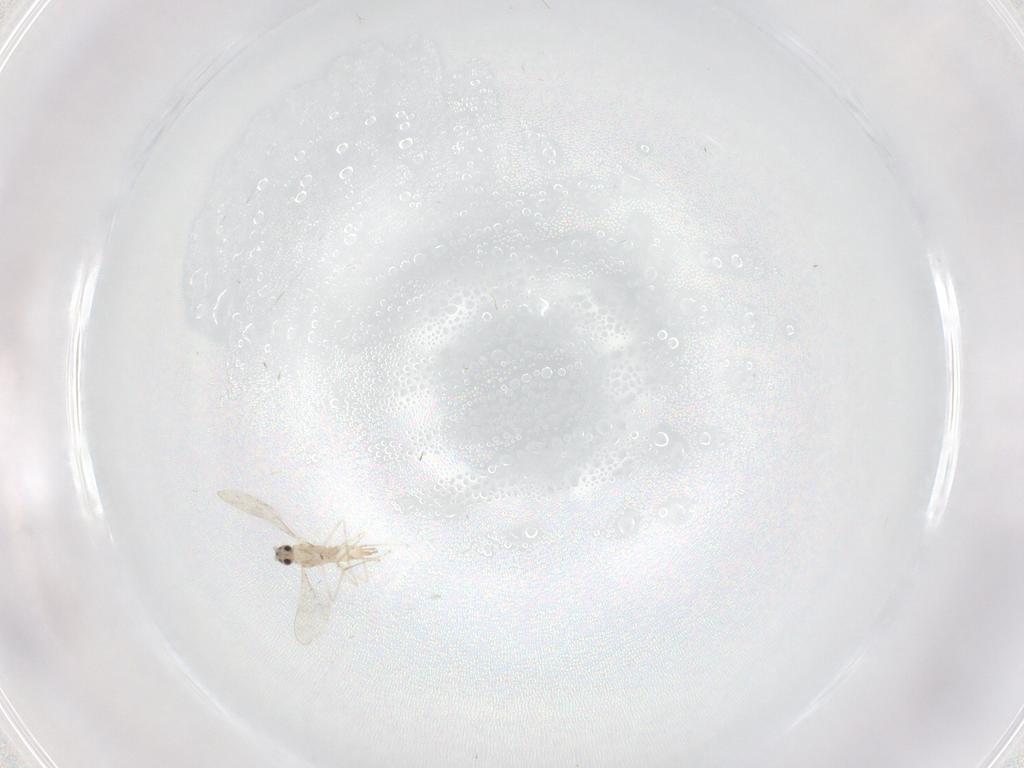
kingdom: Animalia
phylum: Arthropoda
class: Insecta
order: Diptera
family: Cecidomyiidae
